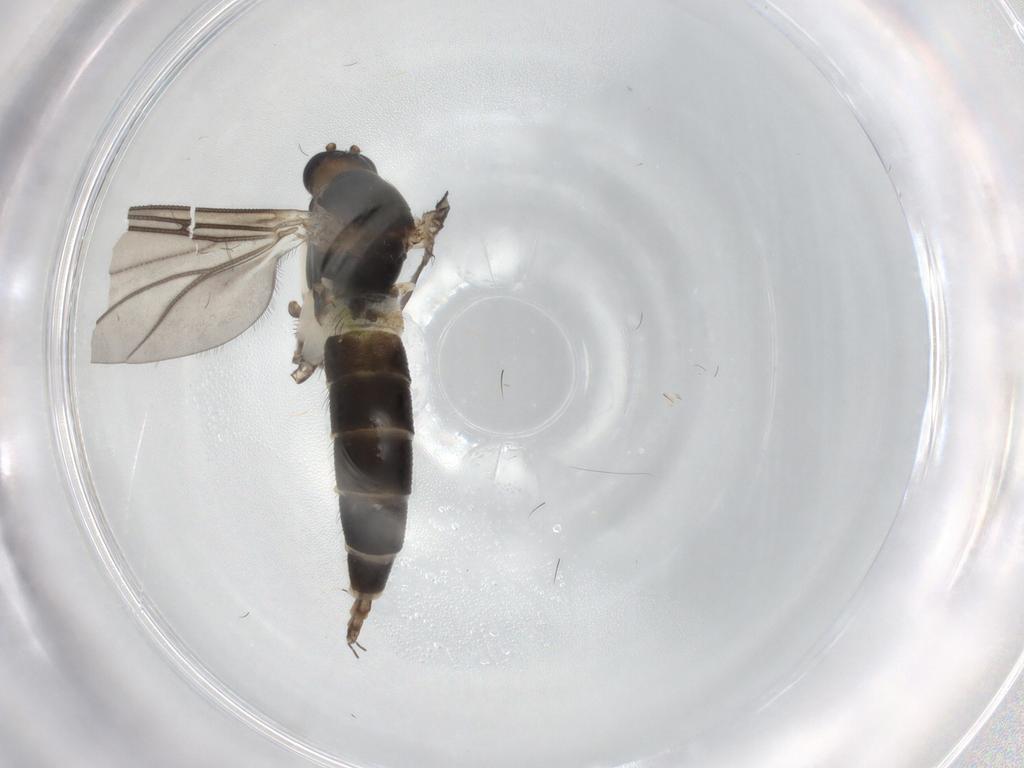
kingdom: Animalia
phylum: Arthropoda
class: Insecta
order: Diptera
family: Sciaridae
